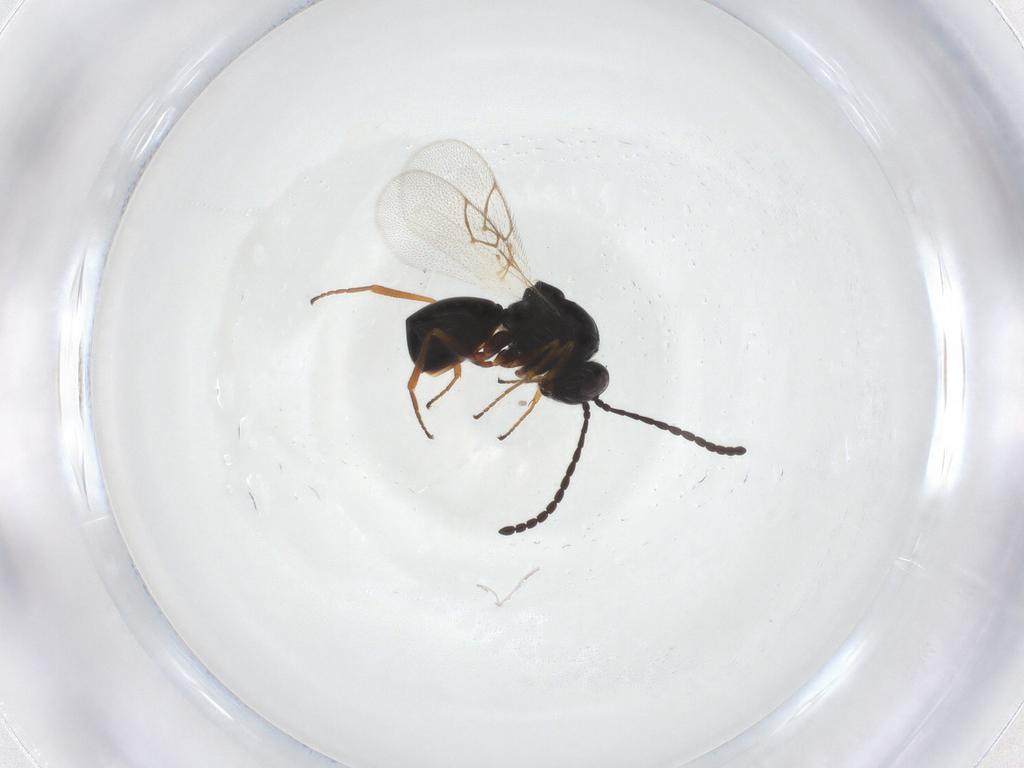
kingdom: Animalia
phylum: Arthropoda
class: Insecta
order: Hymenoptera
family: Figitidae
